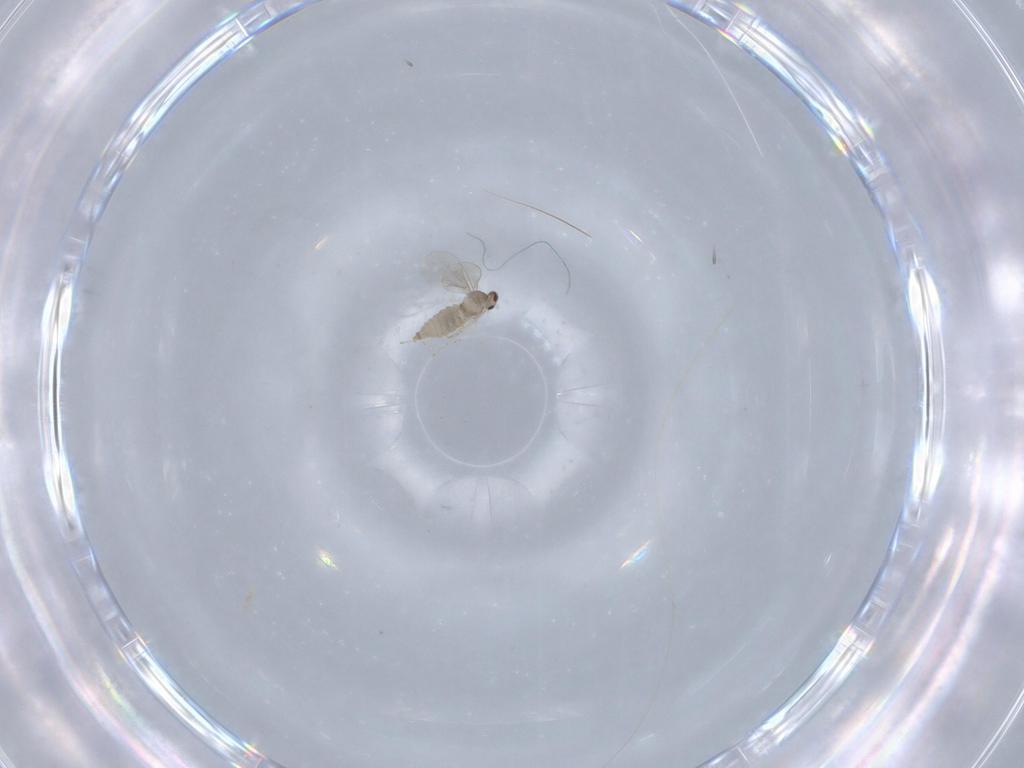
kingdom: Animalia
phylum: Arthropoda
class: Insecta
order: Diptera
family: Cecidomyiidae
